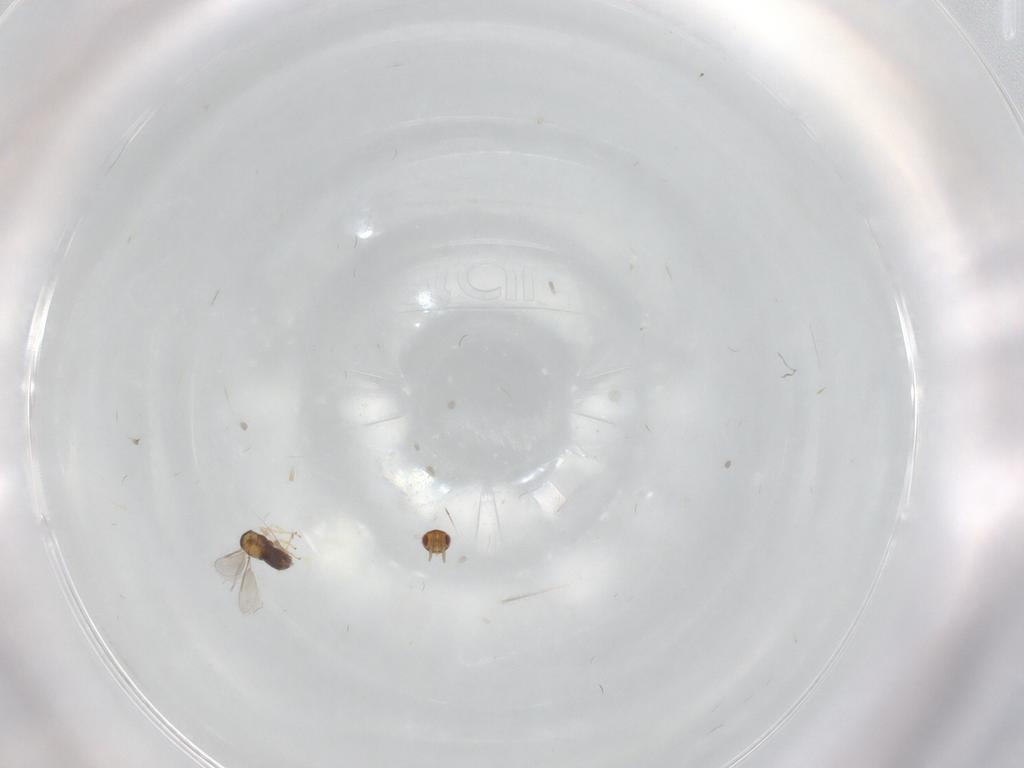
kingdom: Animalia
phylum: Arthropoda
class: Insecta
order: Hymenoptera
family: Aphelinidae
